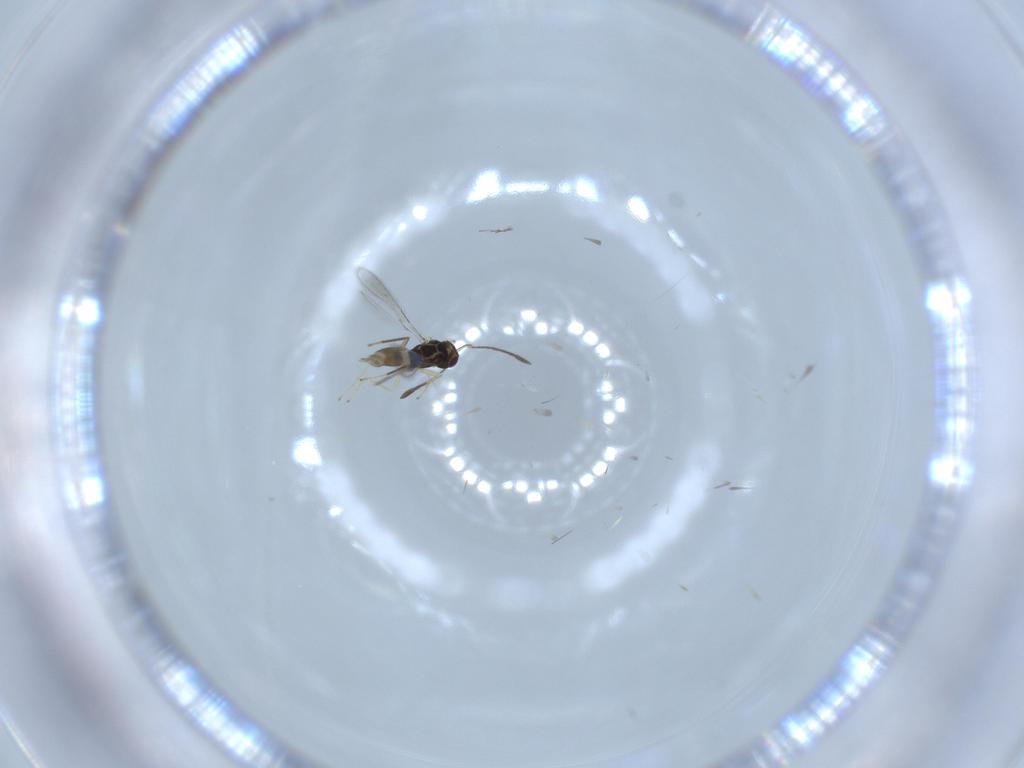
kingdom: Animalia
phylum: Arthropoda
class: Insecta
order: Hymenoptera
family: Mymaridae
